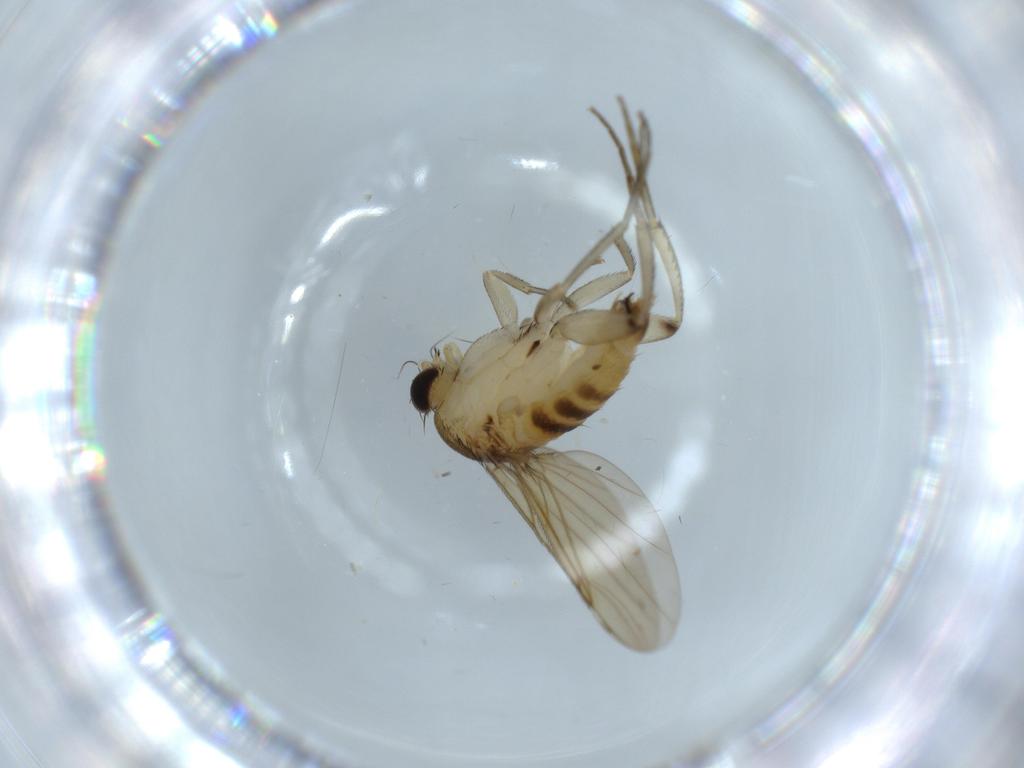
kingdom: Animalia
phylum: Arthropoda
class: Insecta
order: Diptera
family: Phoridae
